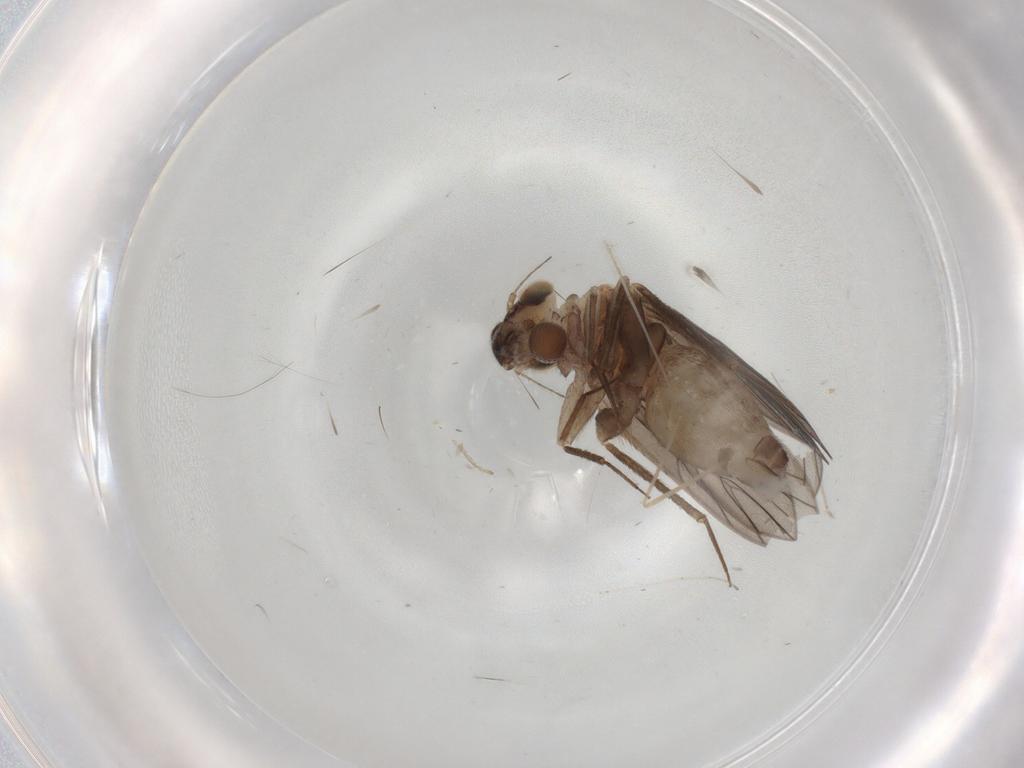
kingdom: Animalia
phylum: Arthropoda
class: Insecta
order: Psocodea
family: Lepidopsocidae
